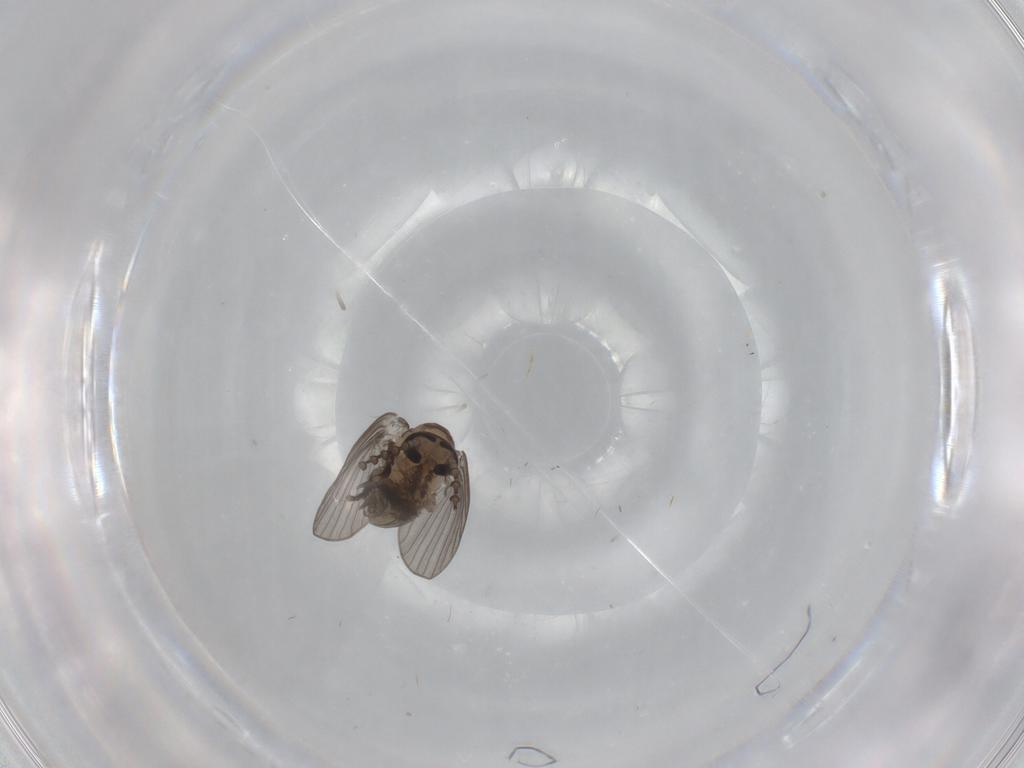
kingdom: Animalia
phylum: Arthropoda
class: Insecta
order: Diptera
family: Psychodidae
